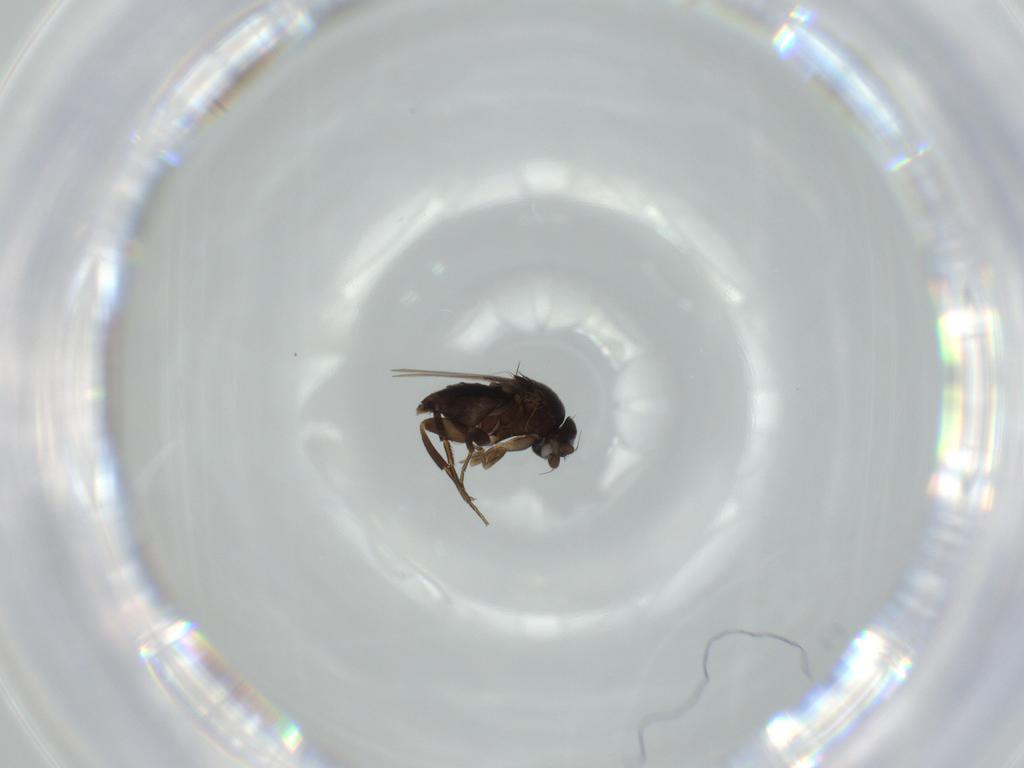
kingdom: Animalia
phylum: Arthropoda
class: Insecta
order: Diptera
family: Phoridae
